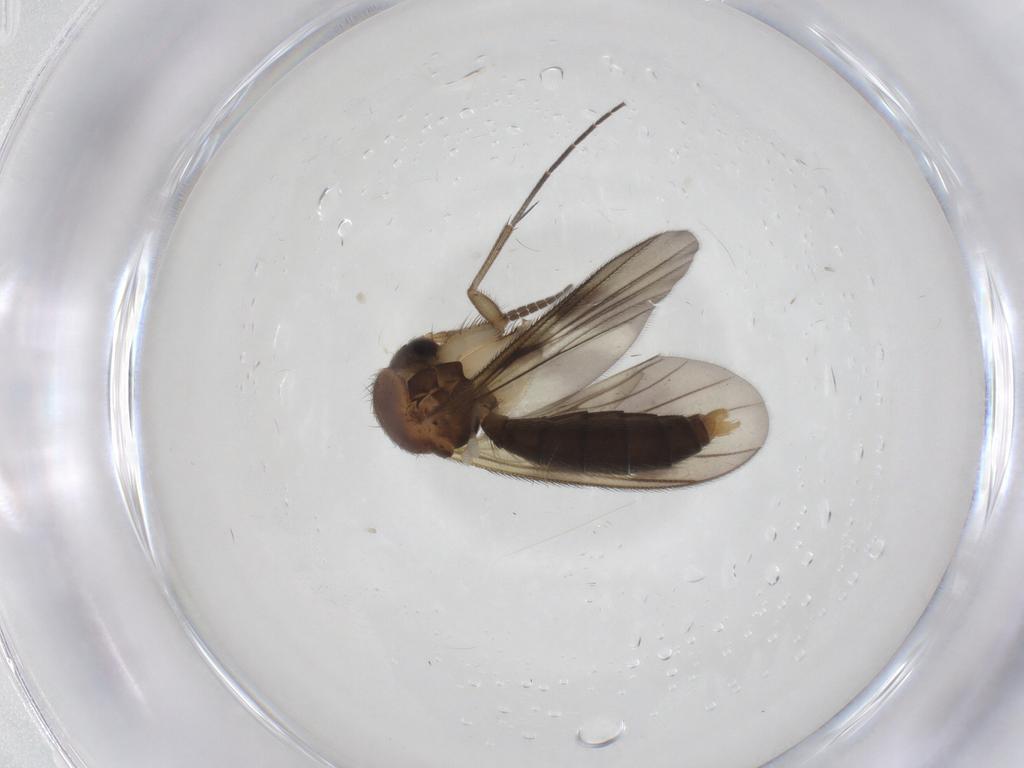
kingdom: Animalia
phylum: Arthropoda
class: Insecta
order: Diptera
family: Mycetophilidae
